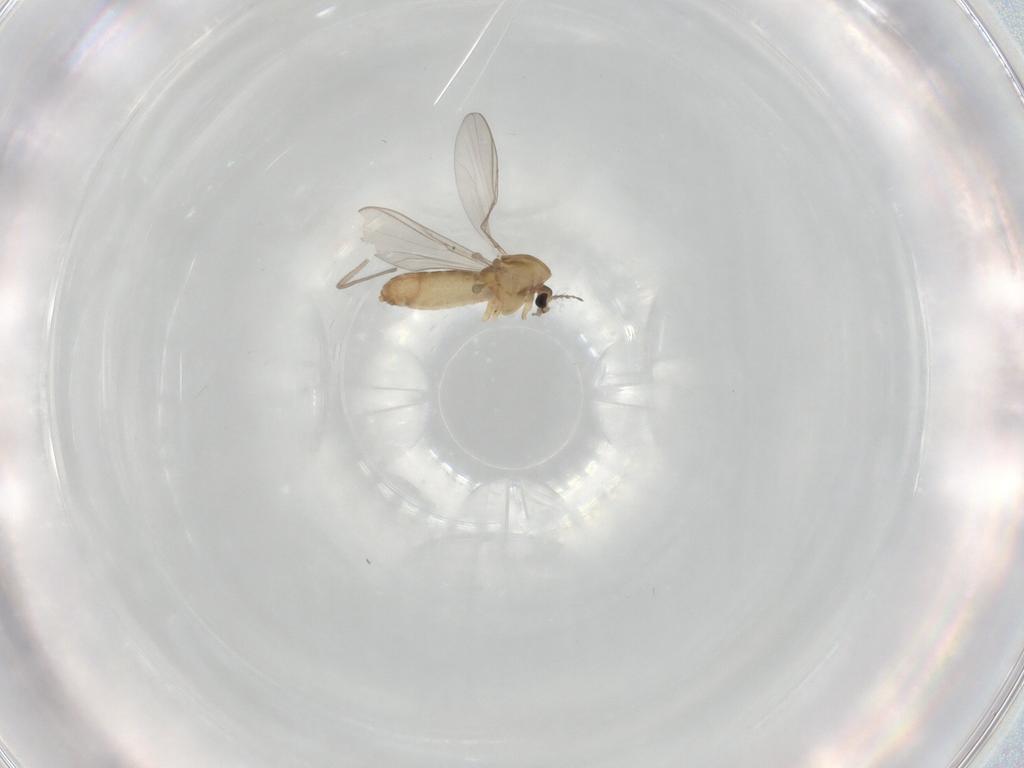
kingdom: Animalia
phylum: Arthropoda
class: Insecta
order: Diptera
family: Chironomidae
